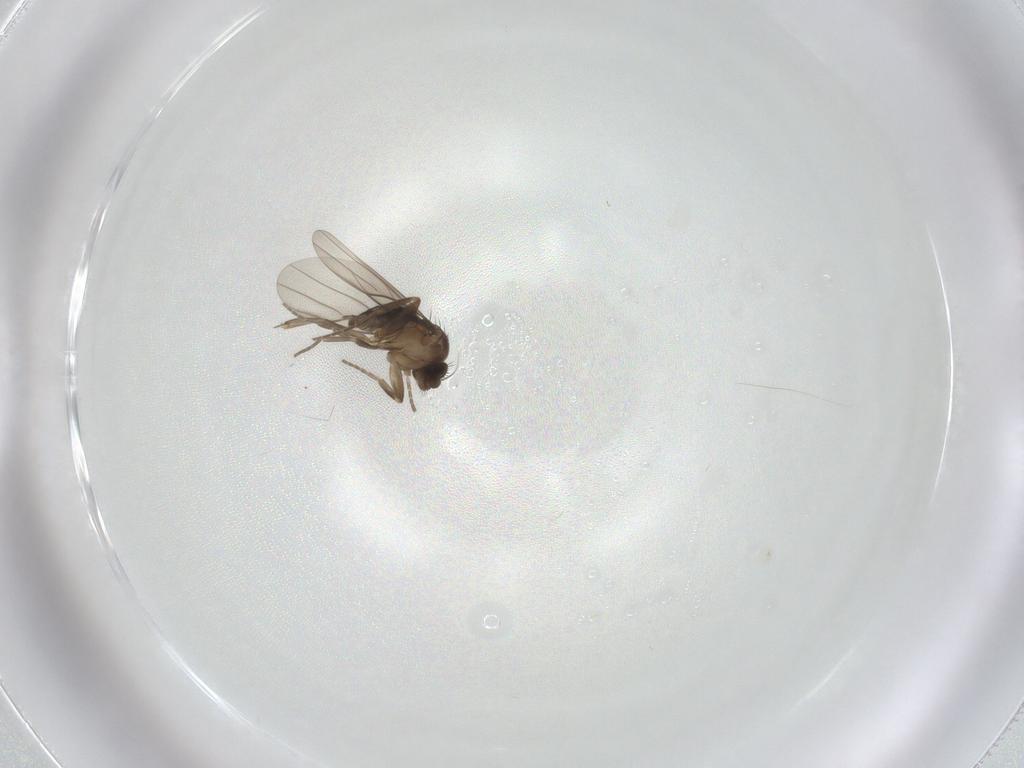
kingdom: Animalia
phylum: Arthropoda
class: Insecta
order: Diptera
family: Phoridae
